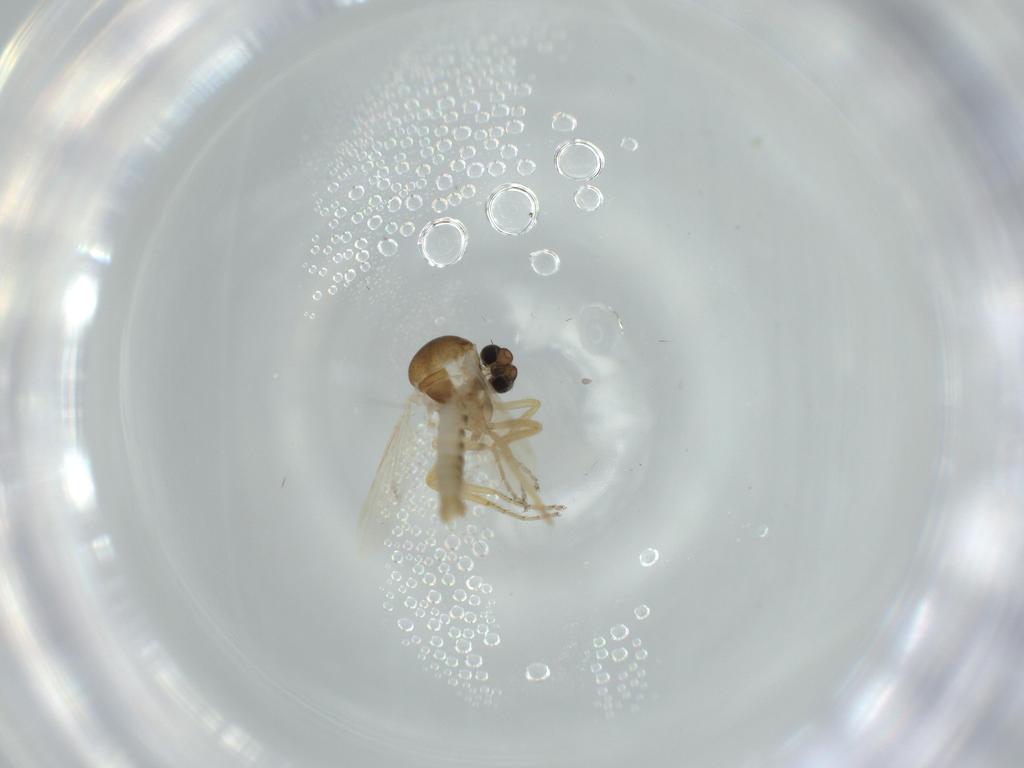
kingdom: Animalia
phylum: Arthropoda
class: Insecta
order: Diptera
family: Ceratopogonidae
